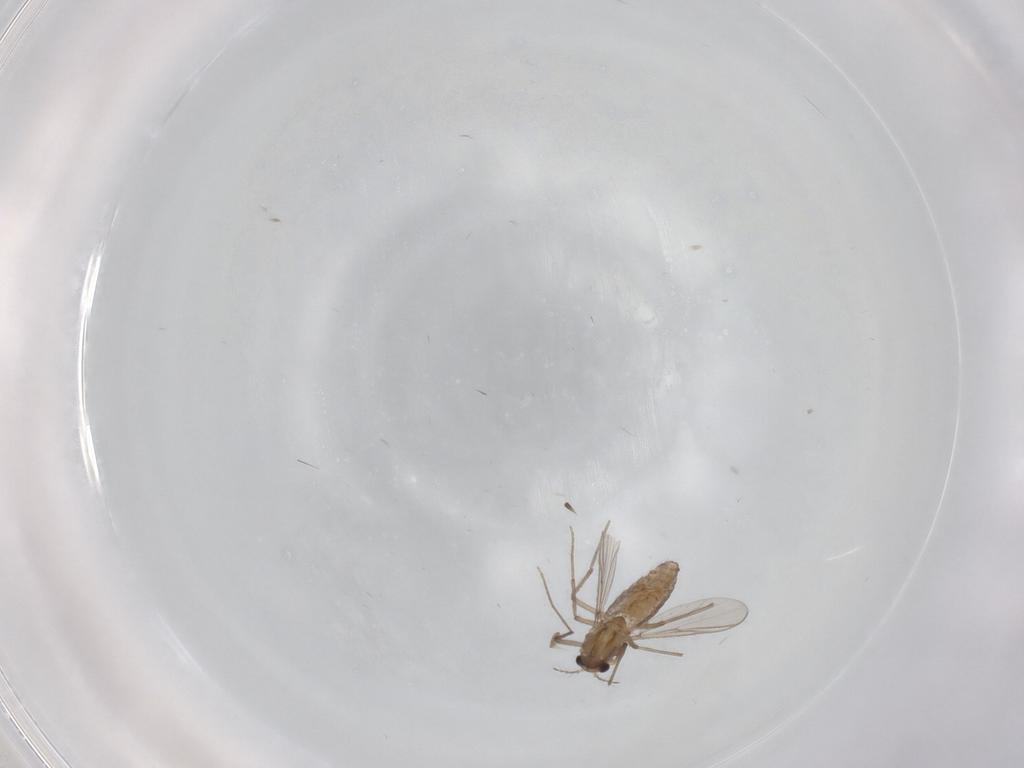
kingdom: Animalia
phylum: Arthropoda
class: Insecta
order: Diptera
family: Chironomidae
